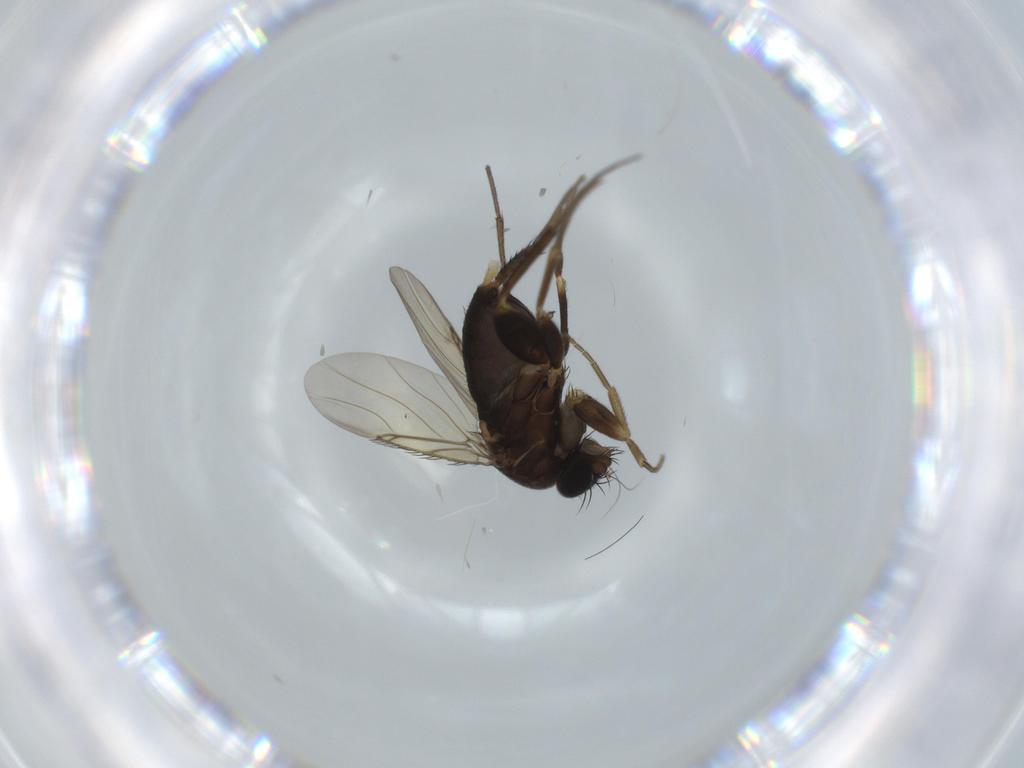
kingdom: Animalia
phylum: Arthropoda
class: Insecta
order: Diptera
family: Phoridae
